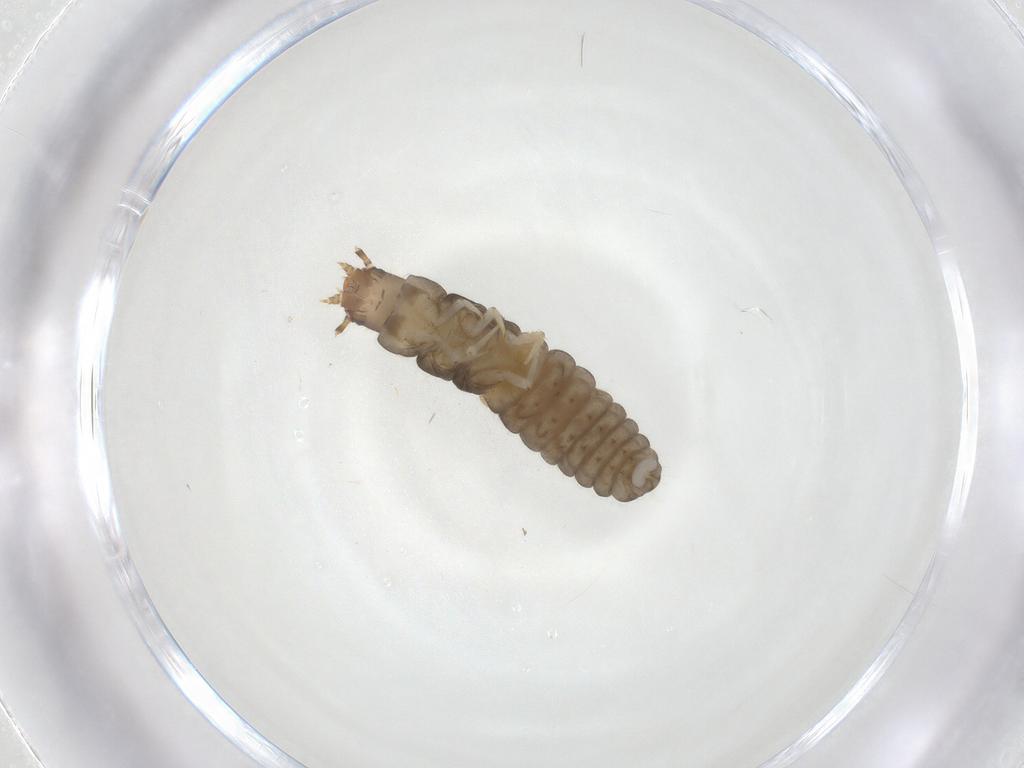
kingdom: Animalia
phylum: Arthropoda
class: Insecta
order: Coleoptera
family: Cantharidae
